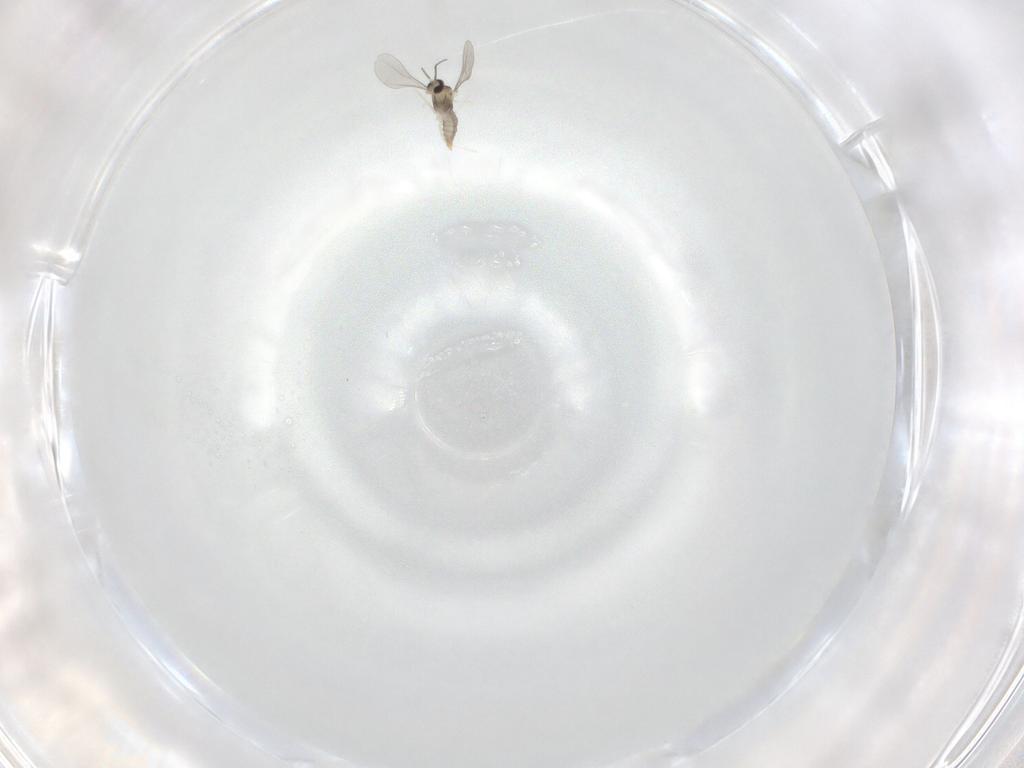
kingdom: Animalia
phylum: Arthropoda
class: Insecta
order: Diptera
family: Cecidomyiidae
